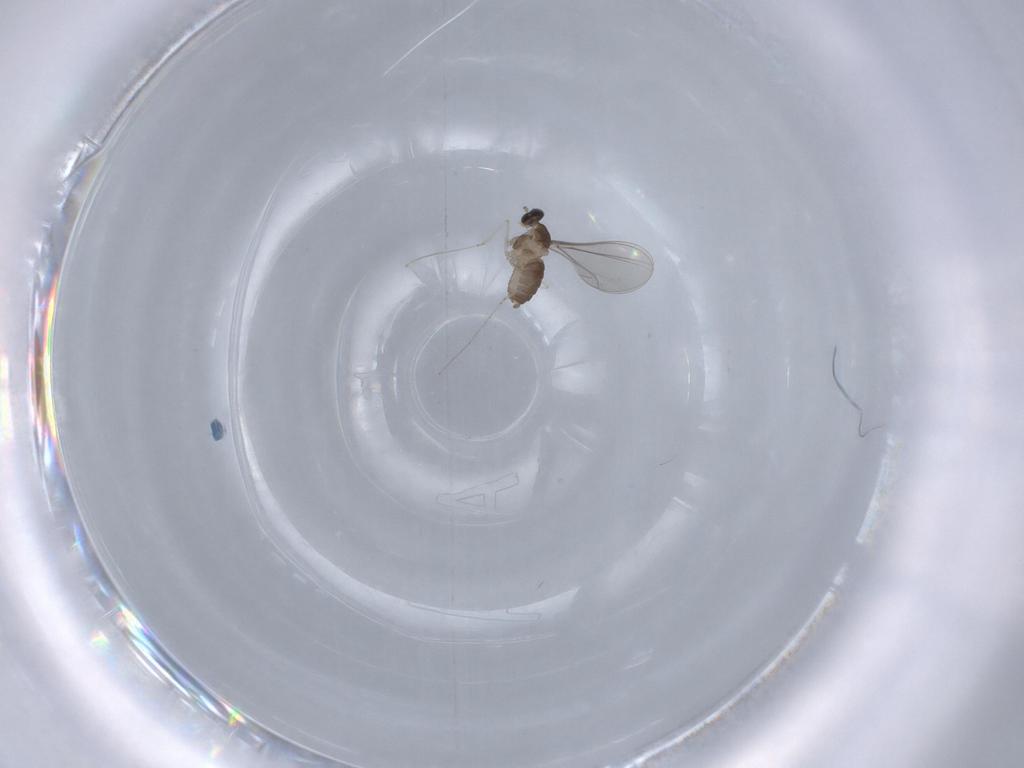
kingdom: Animalia
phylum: Arthropoda
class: Insecta
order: Diptera
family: Cecidomyiidae
